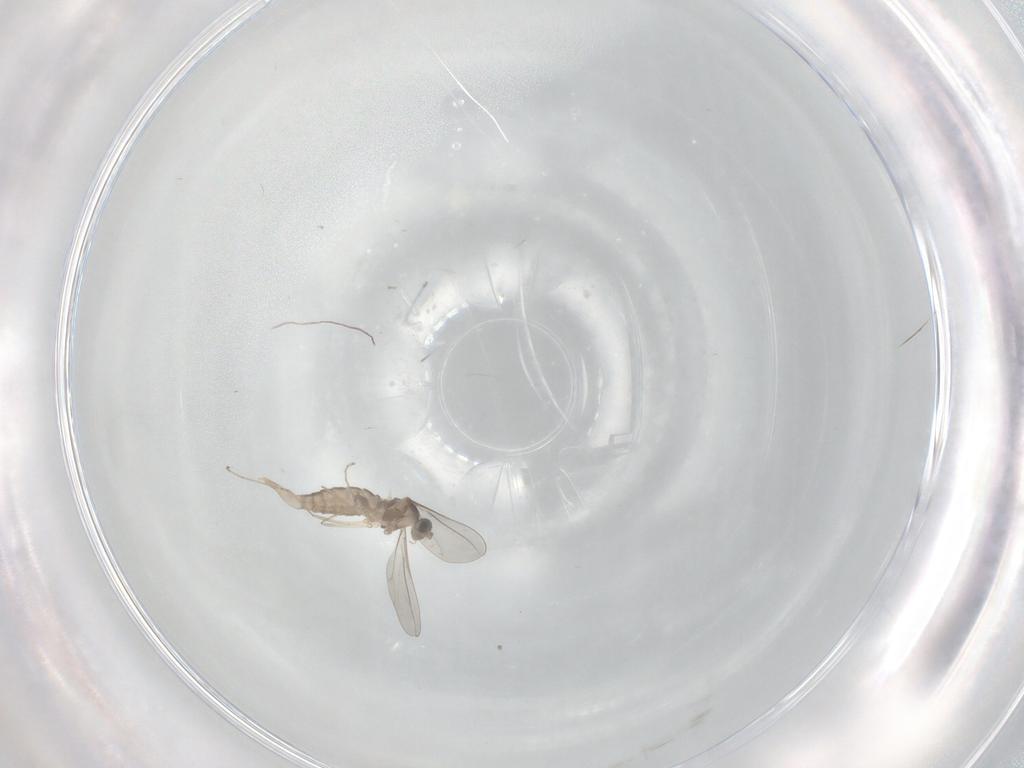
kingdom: Animalia
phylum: Arthropoda
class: Insecta
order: Diptera
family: Phoridae
